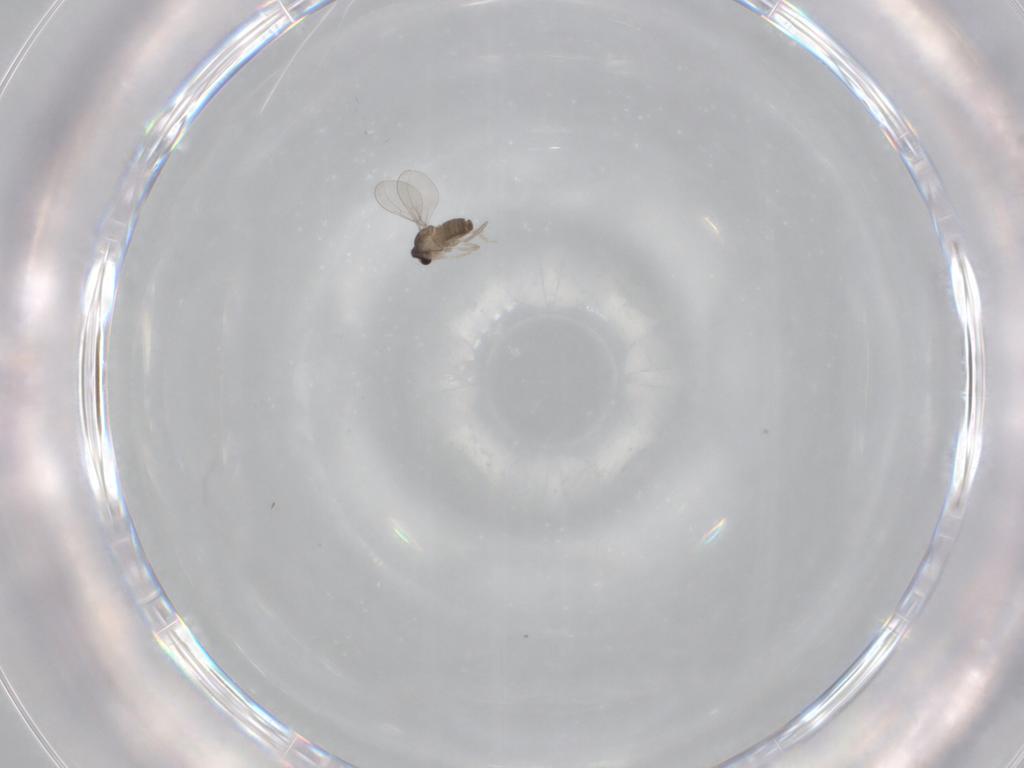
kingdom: Animalia
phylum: Arthropoda
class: Insecta
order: Diptera
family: Cecidomyiidae
